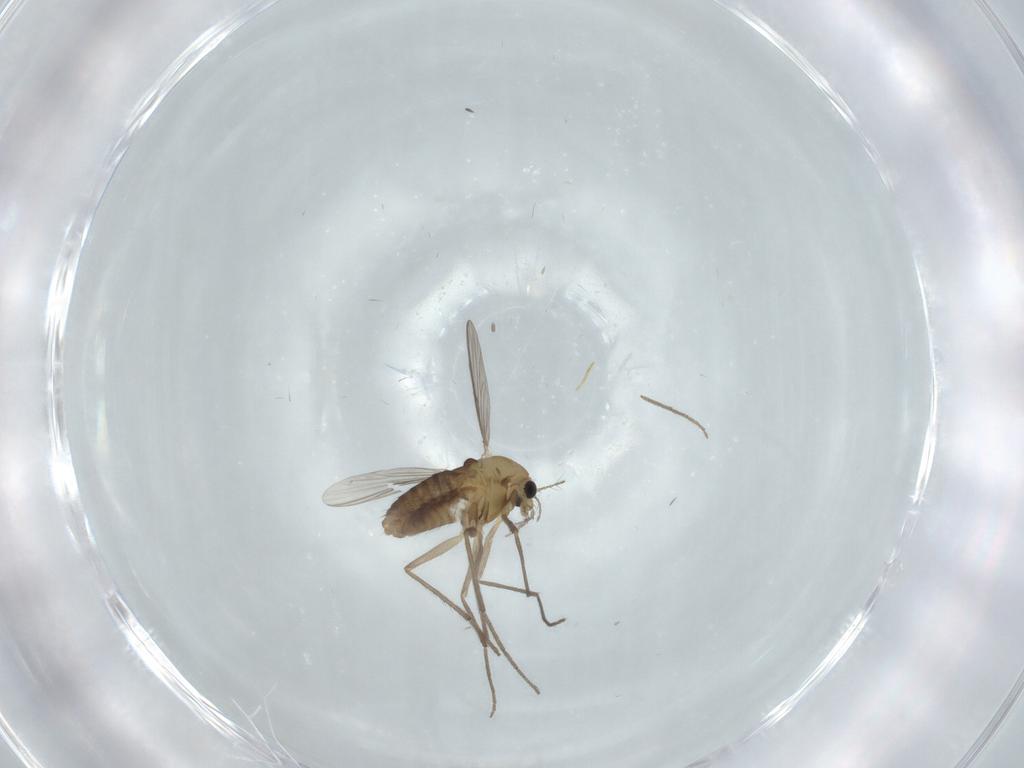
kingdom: Animalia
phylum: Arthropoda
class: Insecta
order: Diptera
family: Chironomidae
